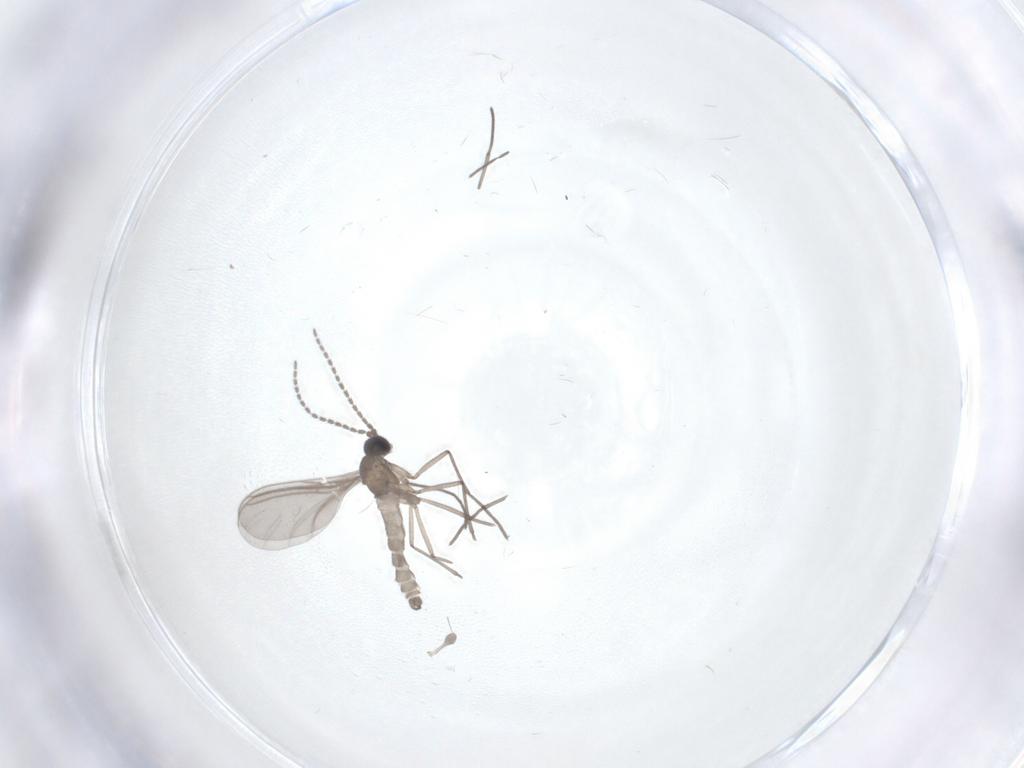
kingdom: Animalia
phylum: Arthropoda
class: Insecta
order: Diptera
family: Sciaridae
